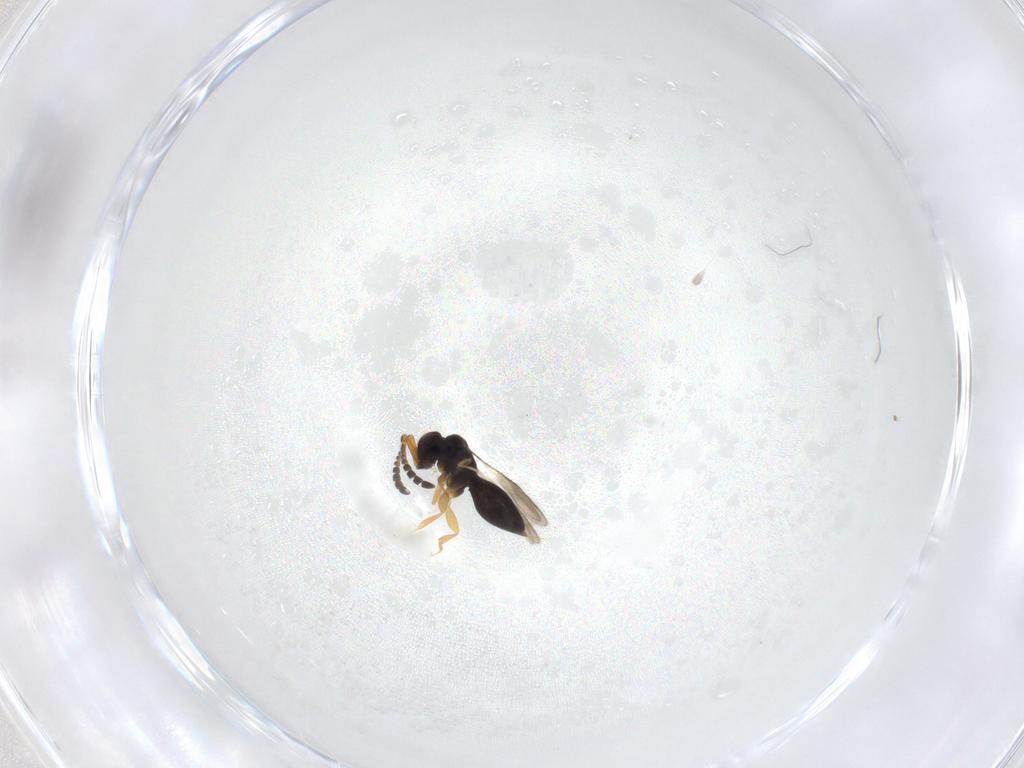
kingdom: Animalia
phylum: Arthropoda
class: Insecta
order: Hymenoptera
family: Ceraphronidae
